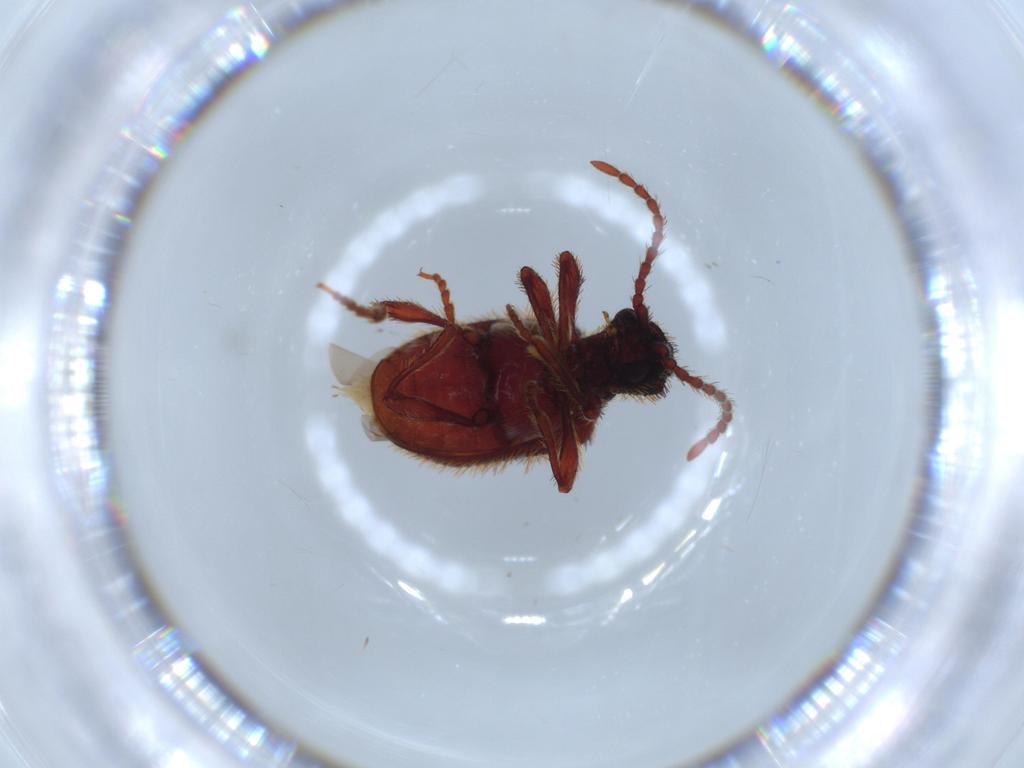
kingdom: Animalia
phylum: Arthropoda
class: Insecta
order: Coleoptera
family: Ptinidae
